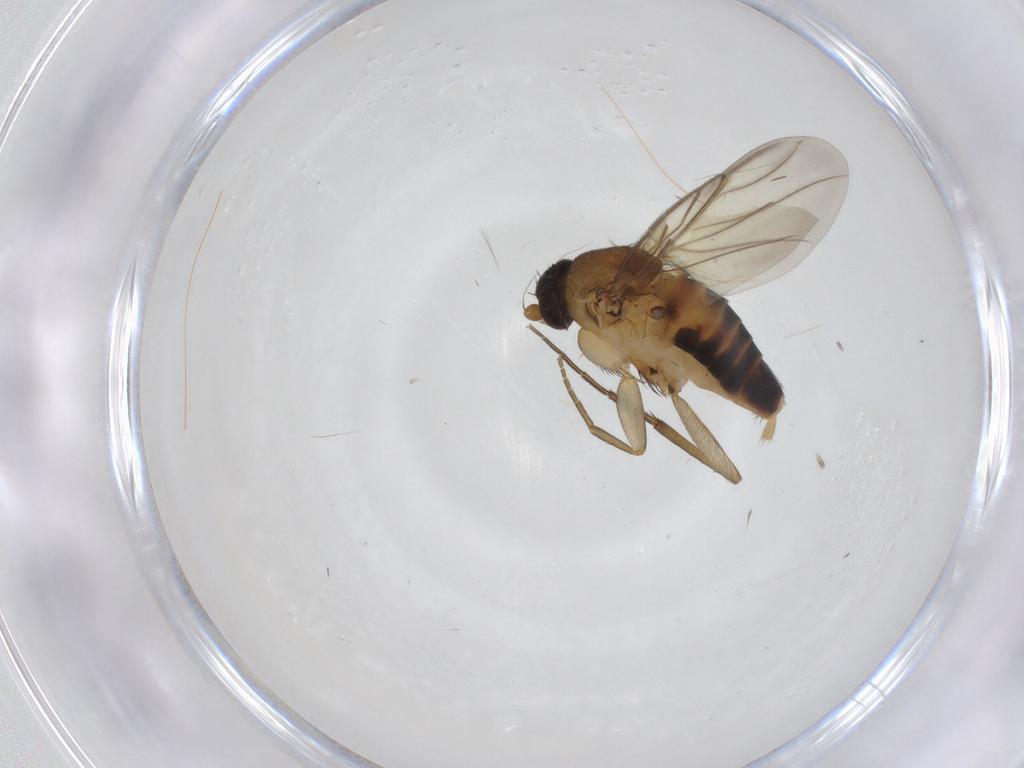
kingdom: Animalia
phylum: Arthropoda
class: Insecta
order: Diptera
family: Phoridae
